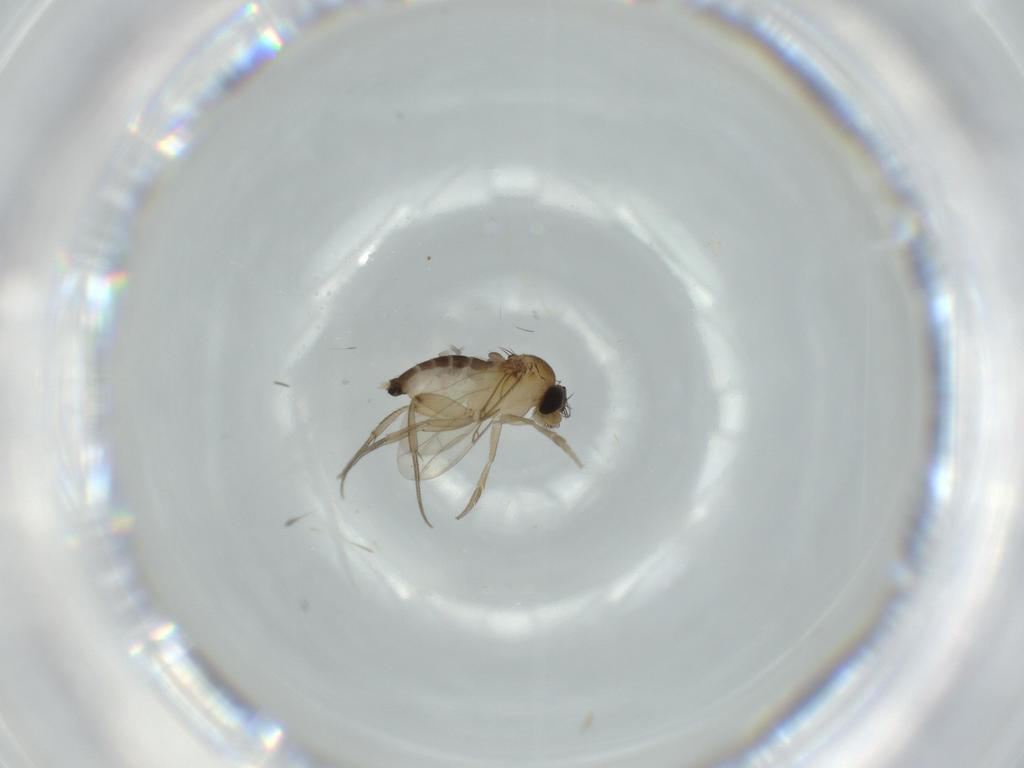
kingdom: Animalia
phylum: Arthropoda
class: Insecta
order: Diptera
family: Phoridae
